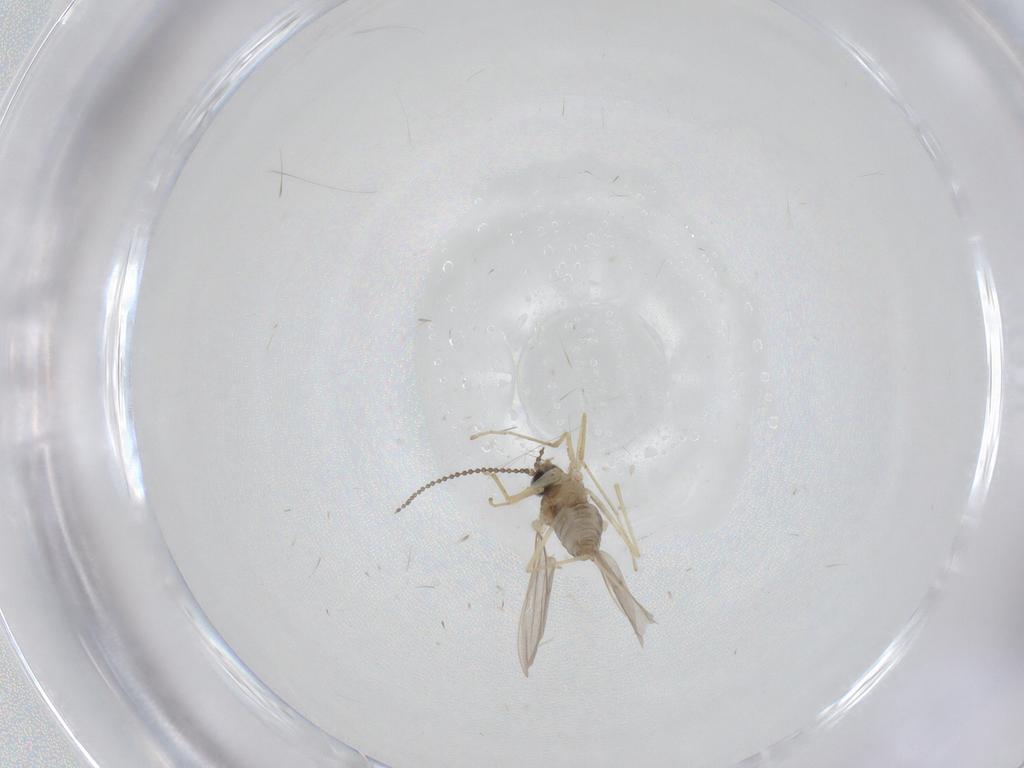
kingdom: Animalia
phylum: Arthropoda
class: Insecta
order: Diptera
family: Cecidomyiidae
